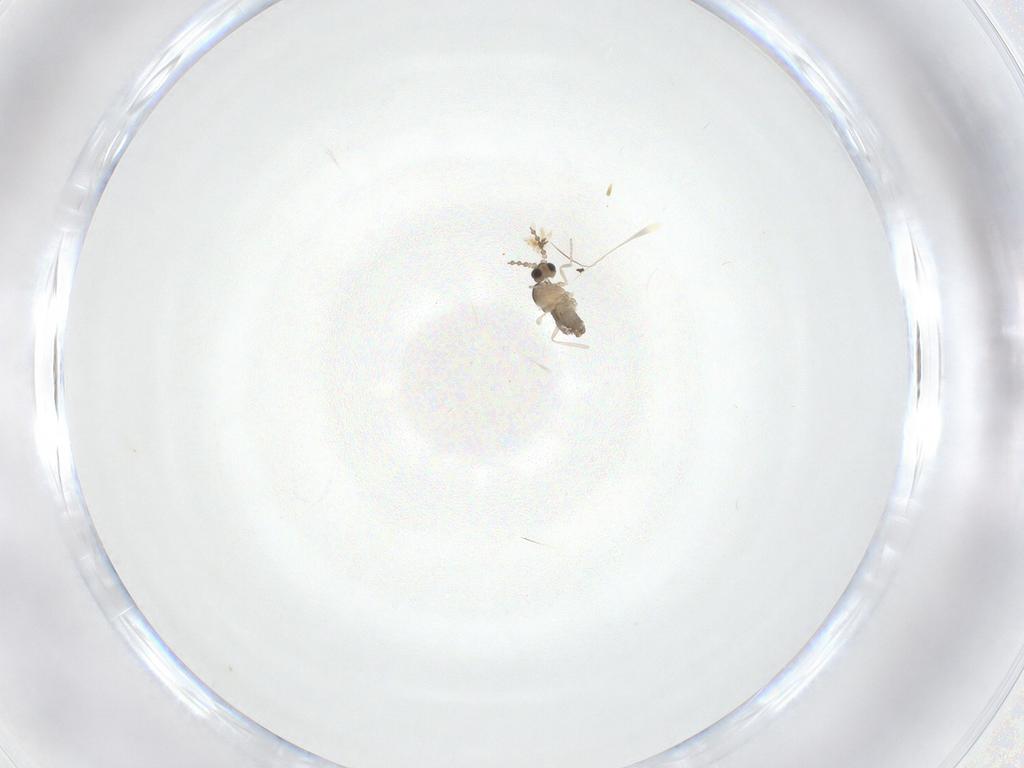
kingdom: Animalia
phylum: Arthropoda
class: Insecta
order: Diptera
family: Cecidomyiidae
